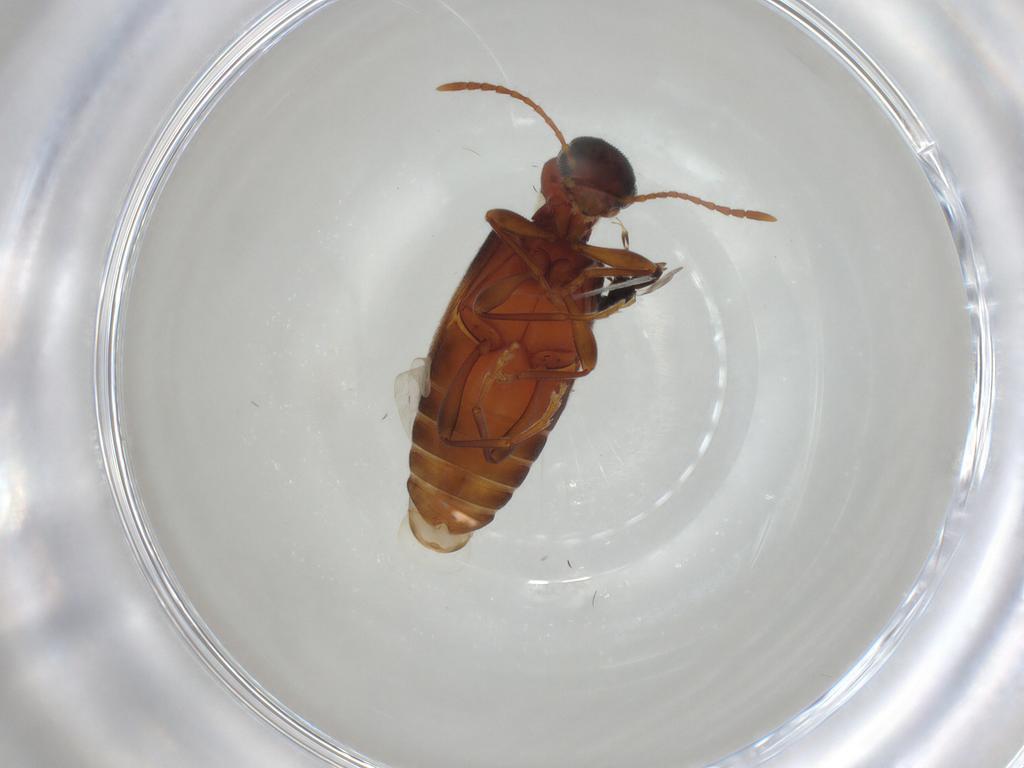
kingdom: Animalia
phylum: Arthropoda
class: Insecta
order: Coleoptera
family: Anthicidae
